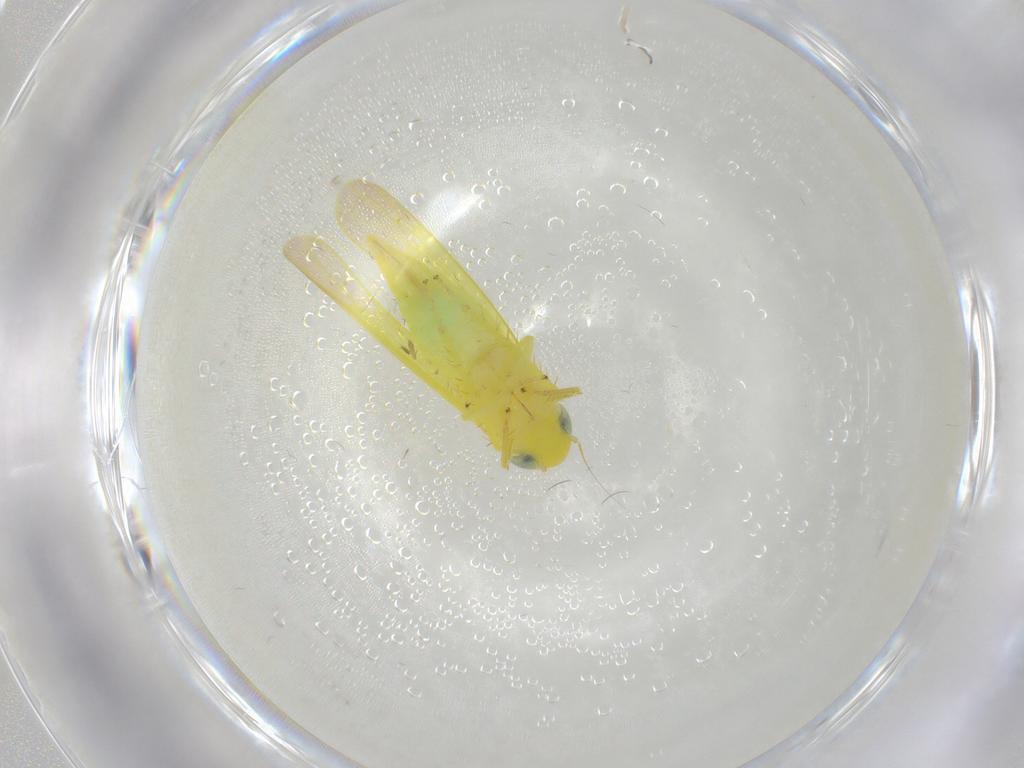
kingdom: Animalia
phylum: Arthropoda
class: Insecta
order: Hemiptera
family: Cicadellidae
